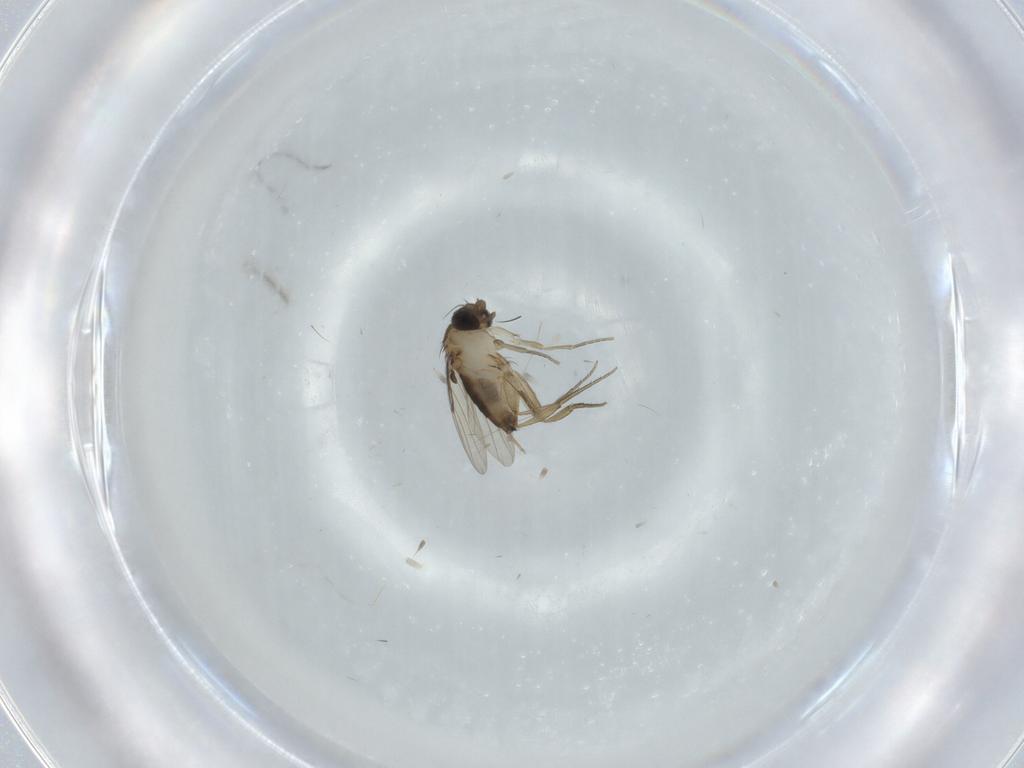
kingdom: Animalia
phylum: Arthropoda
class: Insecta
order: Diptera
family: Phoridae
